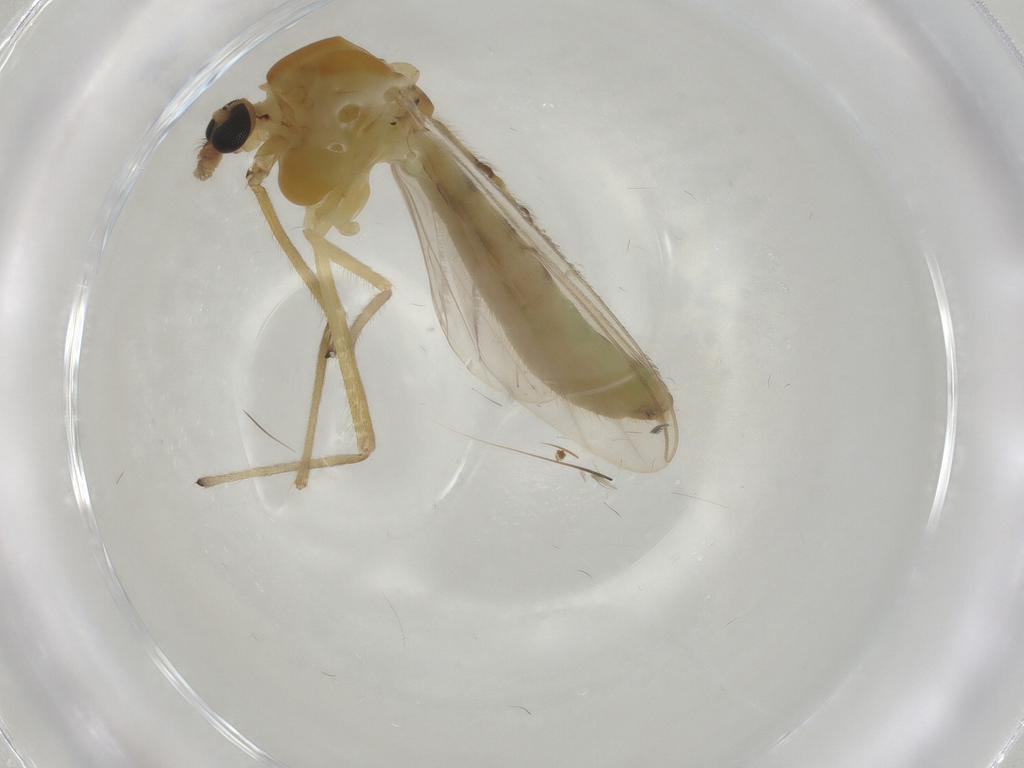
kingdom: Animalia
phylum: Arthropoda
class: Insecta
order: Diptera
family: Chironomidae
